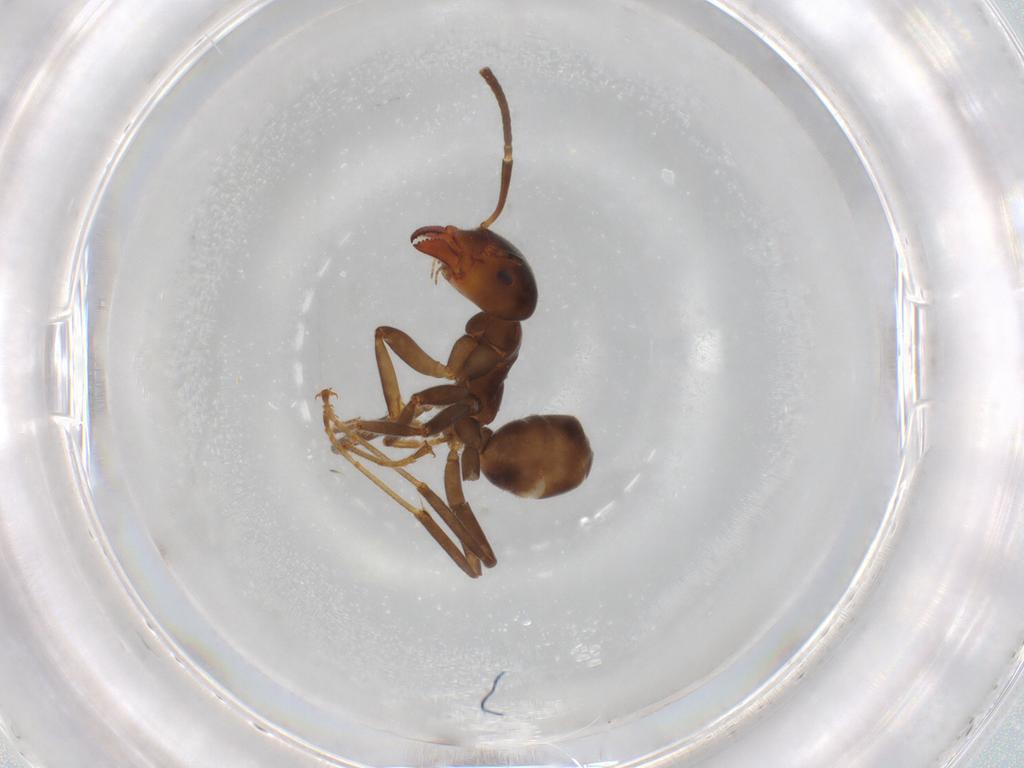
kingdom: Animalia
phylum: Arthropoda
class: Insecta
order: Hymenoptera
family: Formicidae
